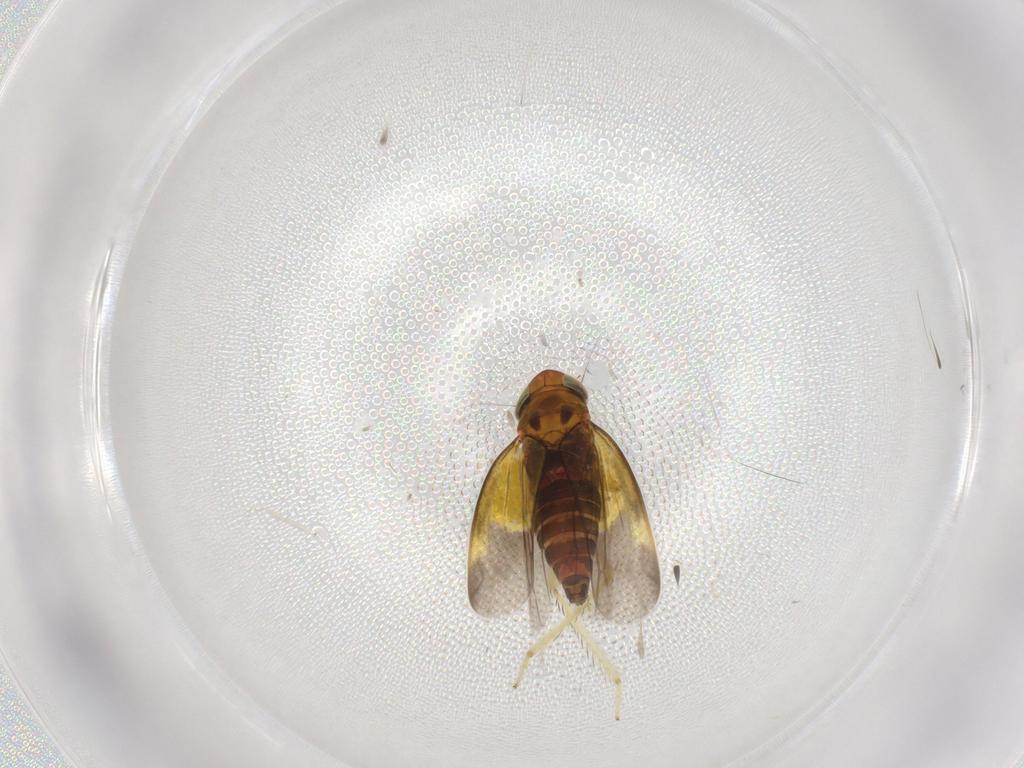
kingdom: Animalia
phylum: Arthropoda
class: Insecta
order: Hemiptera
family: Cicadellidae
